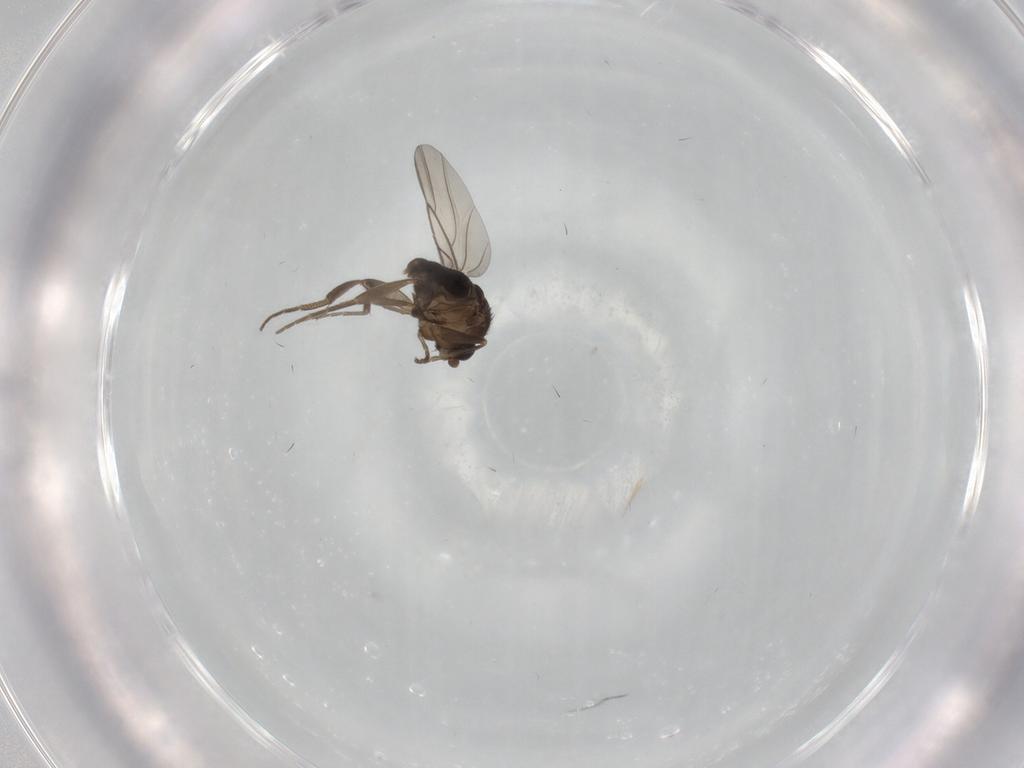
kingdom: Animalia
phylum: Arthropoda
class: Insecta
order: Diptera
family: Phoridae
